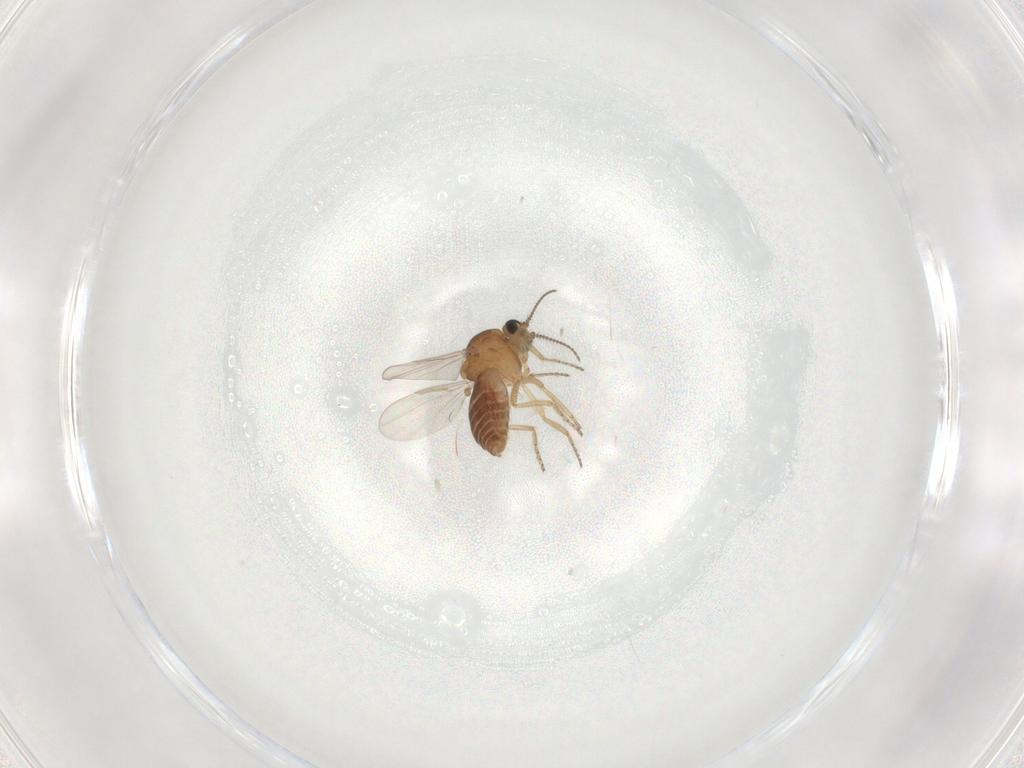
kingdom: Animalia
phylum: Arthropoda
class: Insecta
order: Diptera
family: Ceratopogonidae
